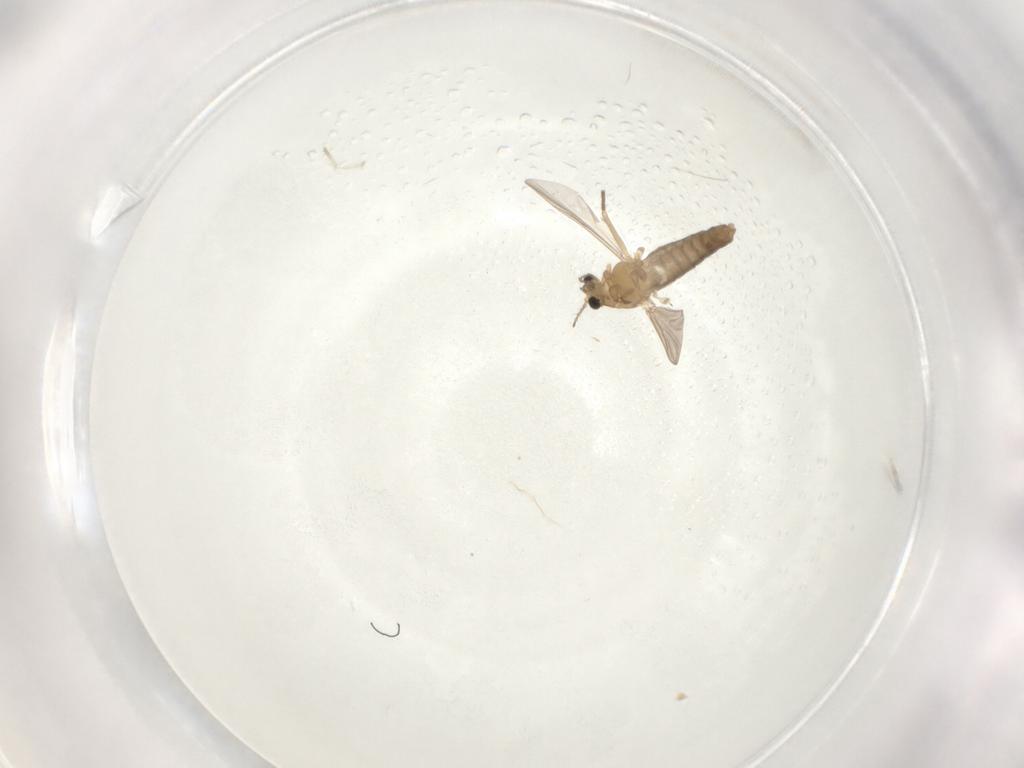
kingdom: Animalia
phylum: Arthropoda
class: Insecta
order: Diptera
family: Chironomidae
